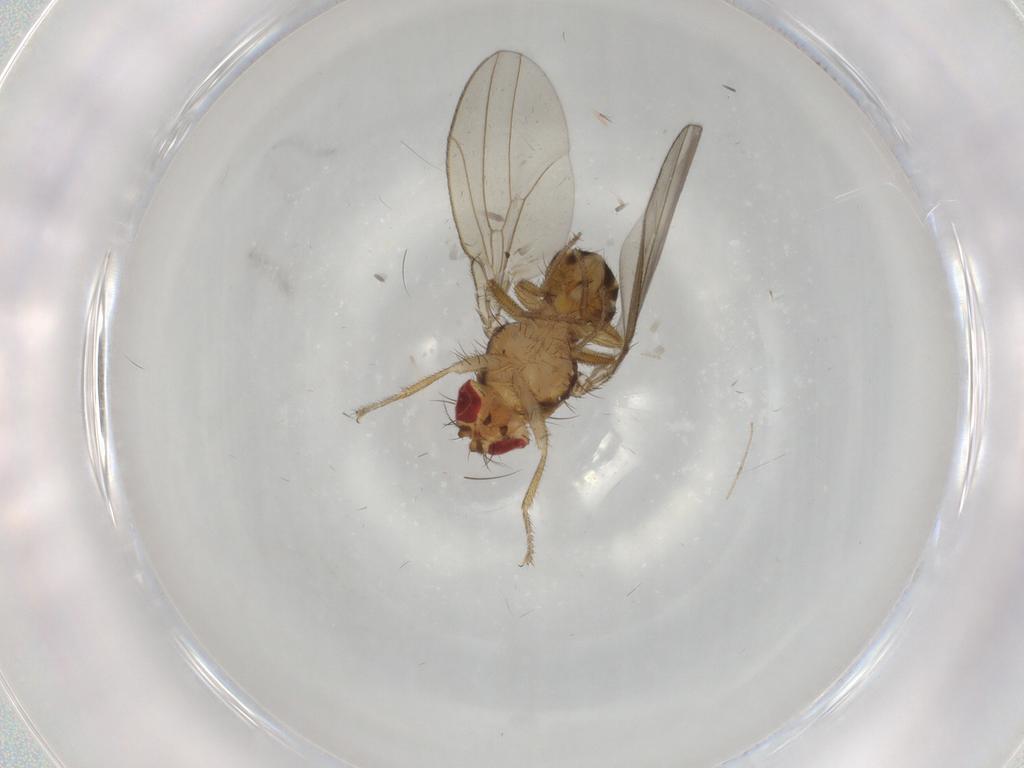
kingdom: Animalia
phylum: Arthropoda
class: Insecta
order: Diptera
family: Drosophilidae
